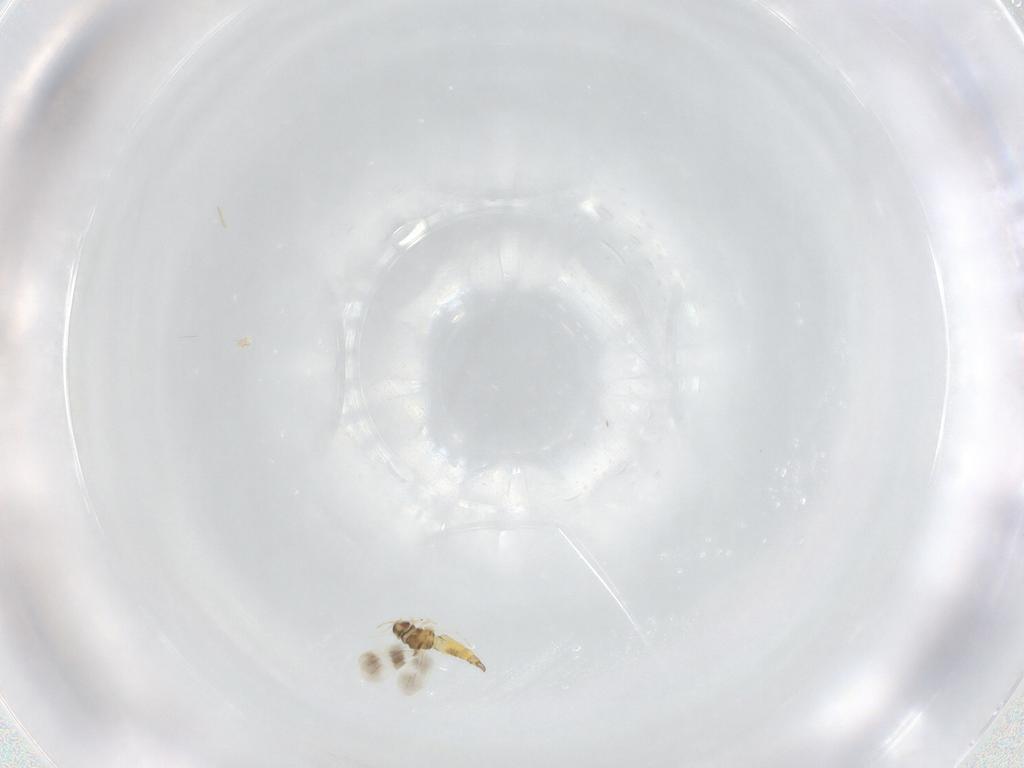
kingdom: Animalia
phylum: Arthropoda
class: Insecta
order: Hemiptera
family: Aleyrodidae
